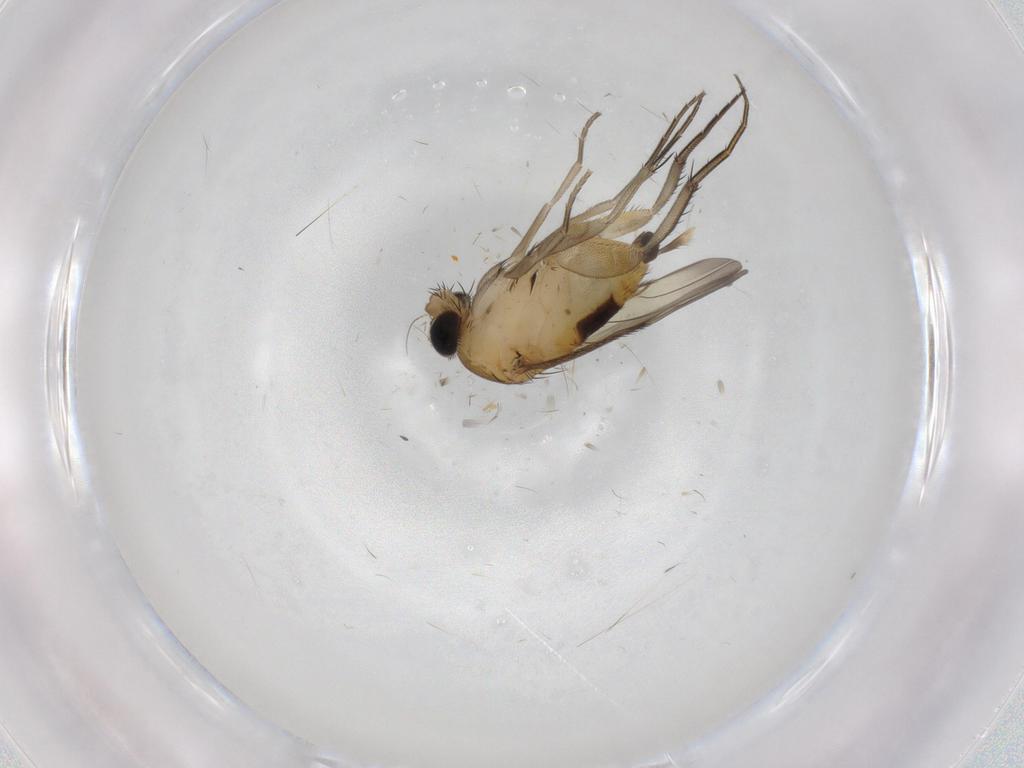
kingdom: Animalia
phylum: Arthropoda
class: Insecta
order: Diptera
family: Phoridae
